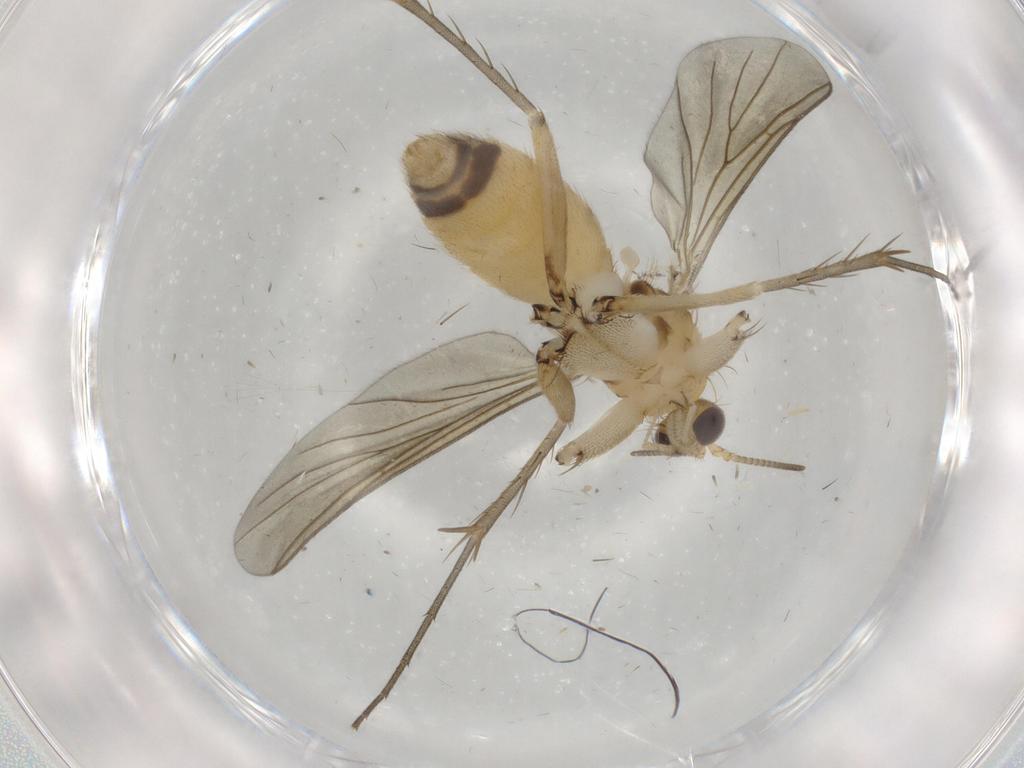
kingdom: Animalia
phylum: Arthropoda
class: Insecta
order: Diptera
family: Mycetophilidae
